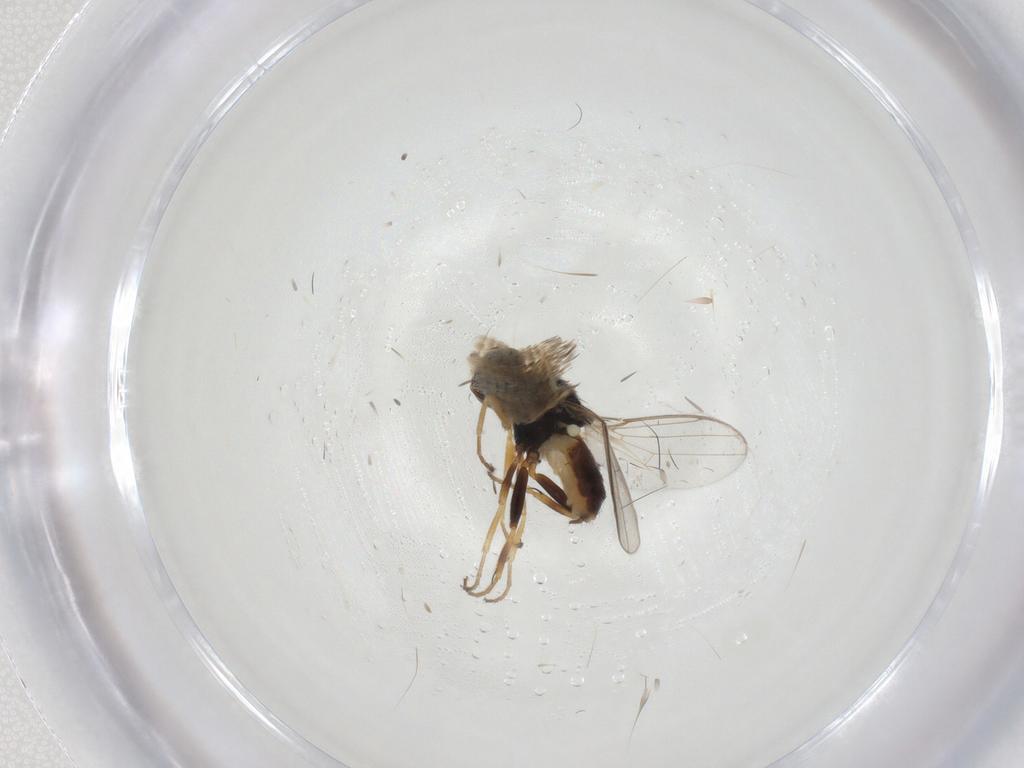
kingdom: Animalia
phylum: Arthropoda
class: Insecta
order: Diptera
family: Chloropidae
